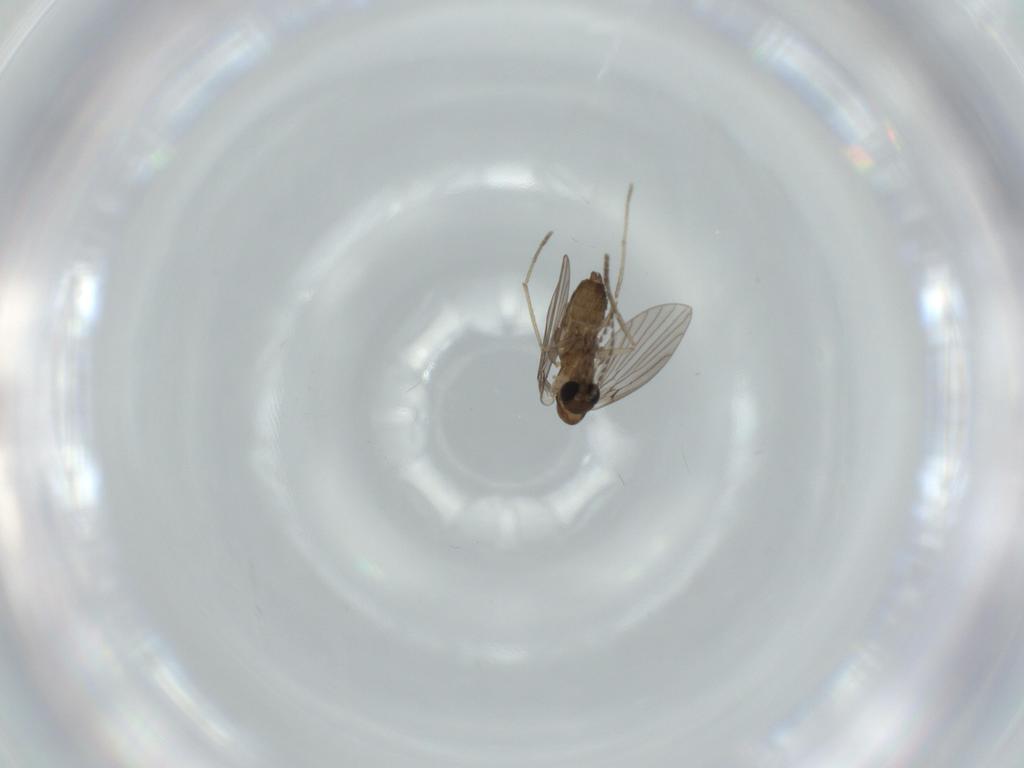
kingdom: Animalia
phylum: Arthropoda
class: Insecta
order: Diptera
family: Psychodidae
